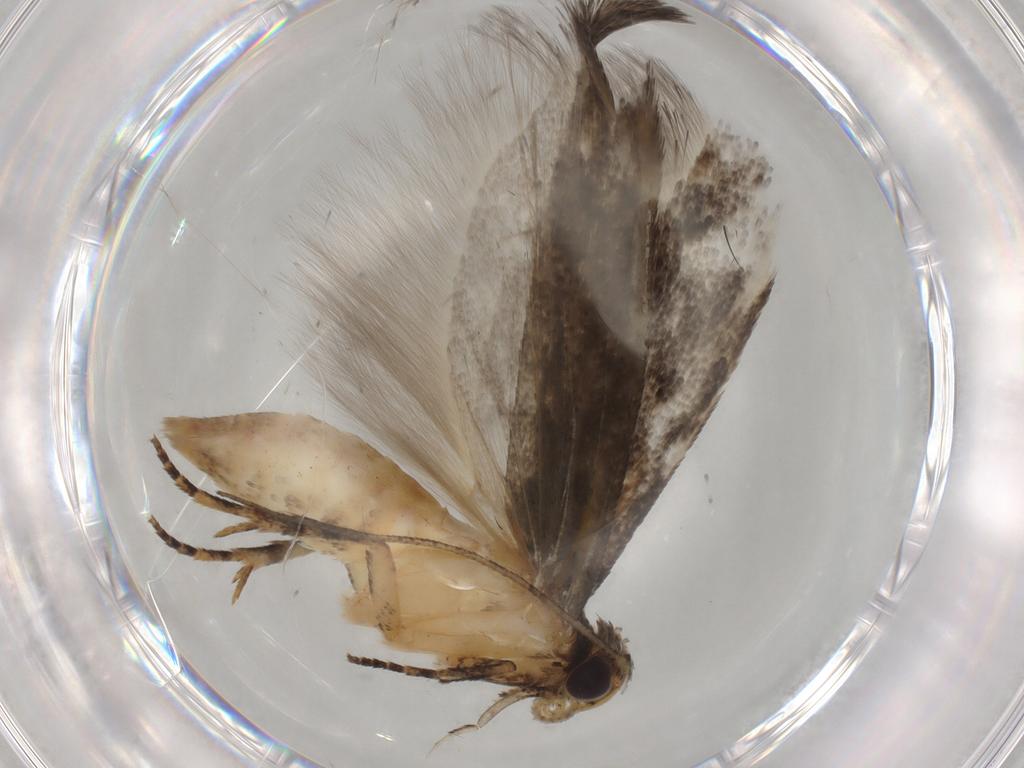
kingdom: Animalia
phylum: Arthropoda
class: Insecta
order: Lepidoptera
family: Gelechiidae
